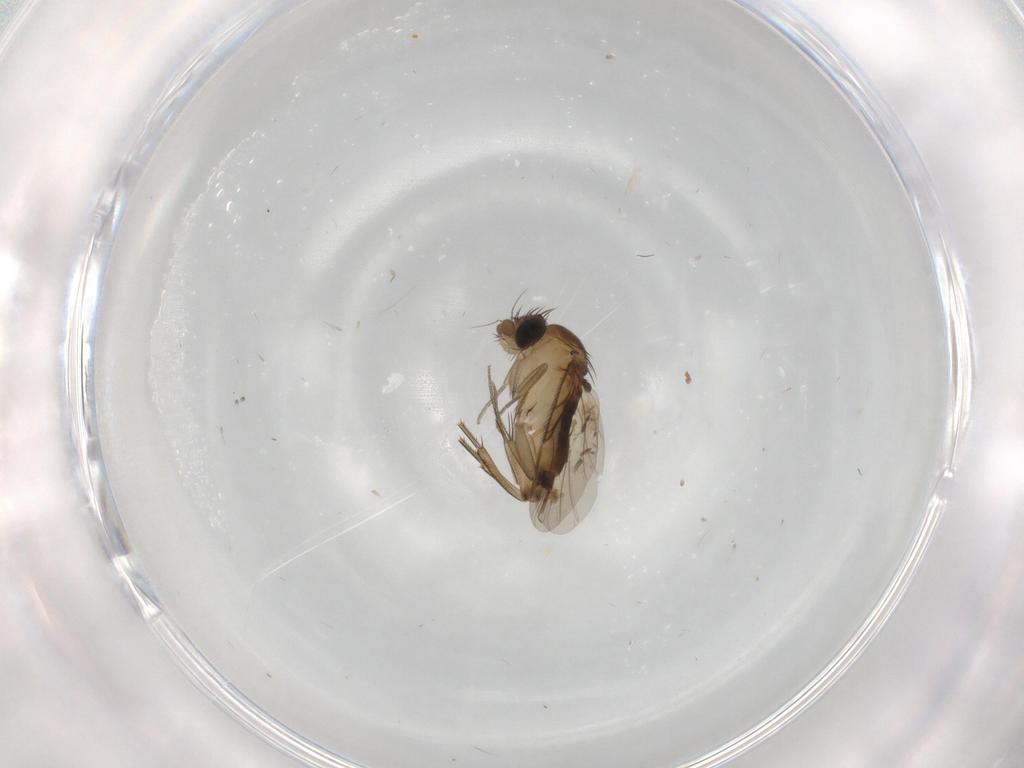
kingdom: Animalia
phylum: Arthropoda
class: Insecta
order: Diptera
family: Phoridae
